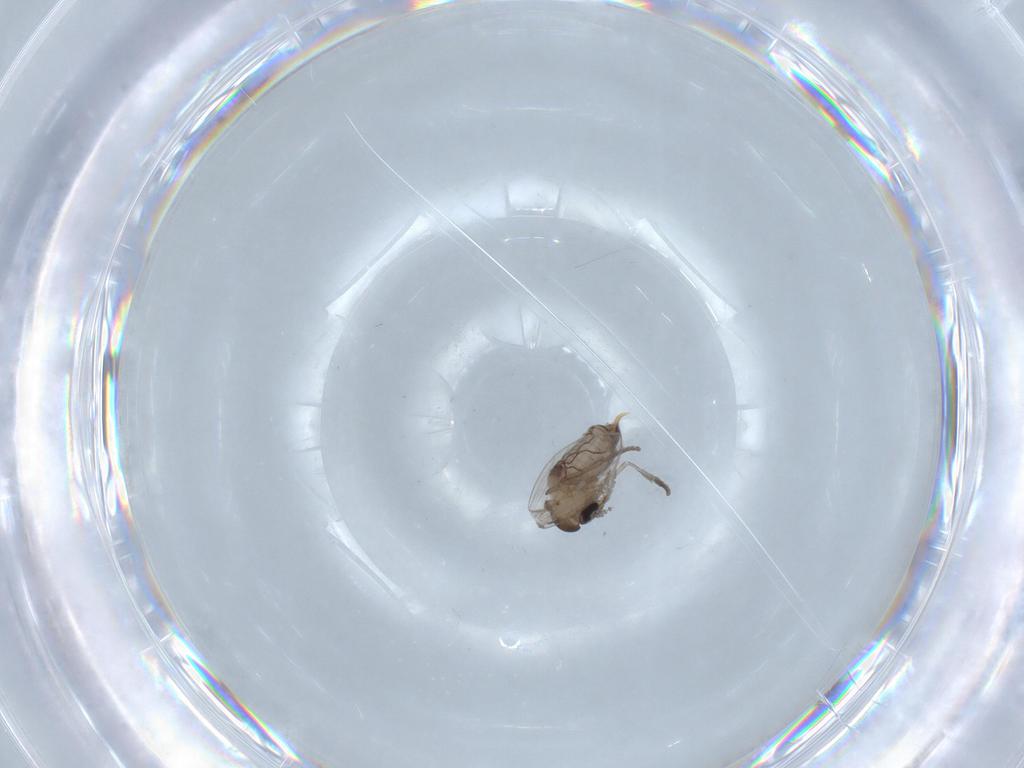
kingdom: Animalia
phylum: Arthropoda
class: Insecta
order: Diptera
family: Psychodidae
